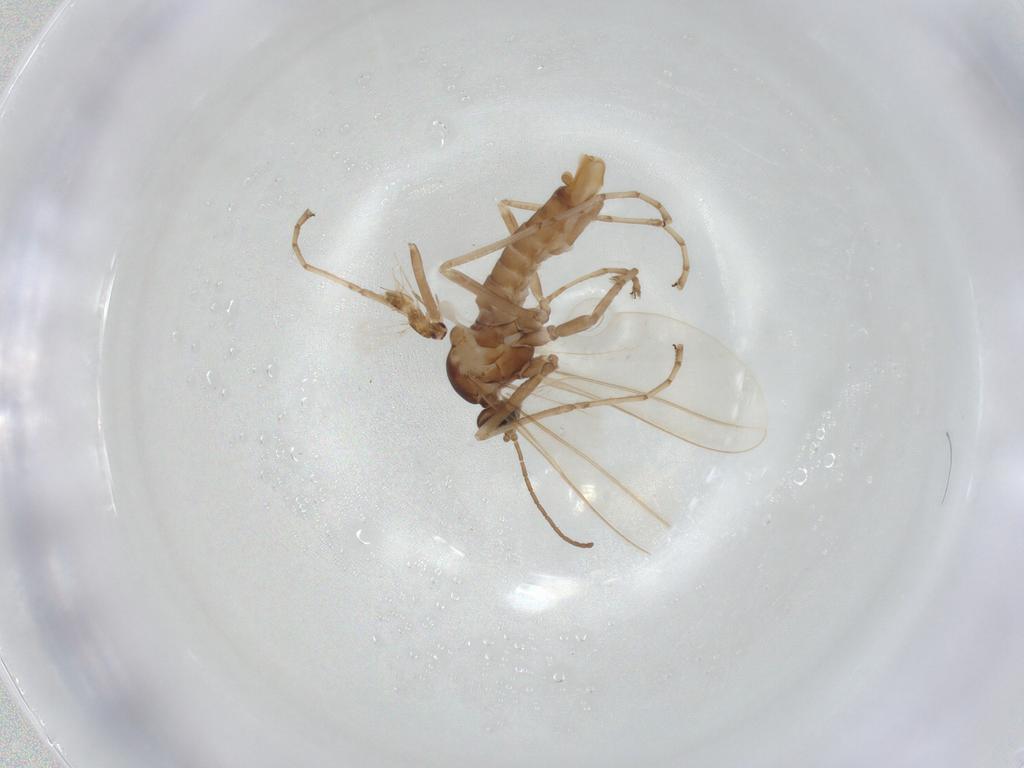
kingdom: Animalia
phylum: Arthropoda
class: Insecta
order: Diptera
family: Cecidomyiidae
